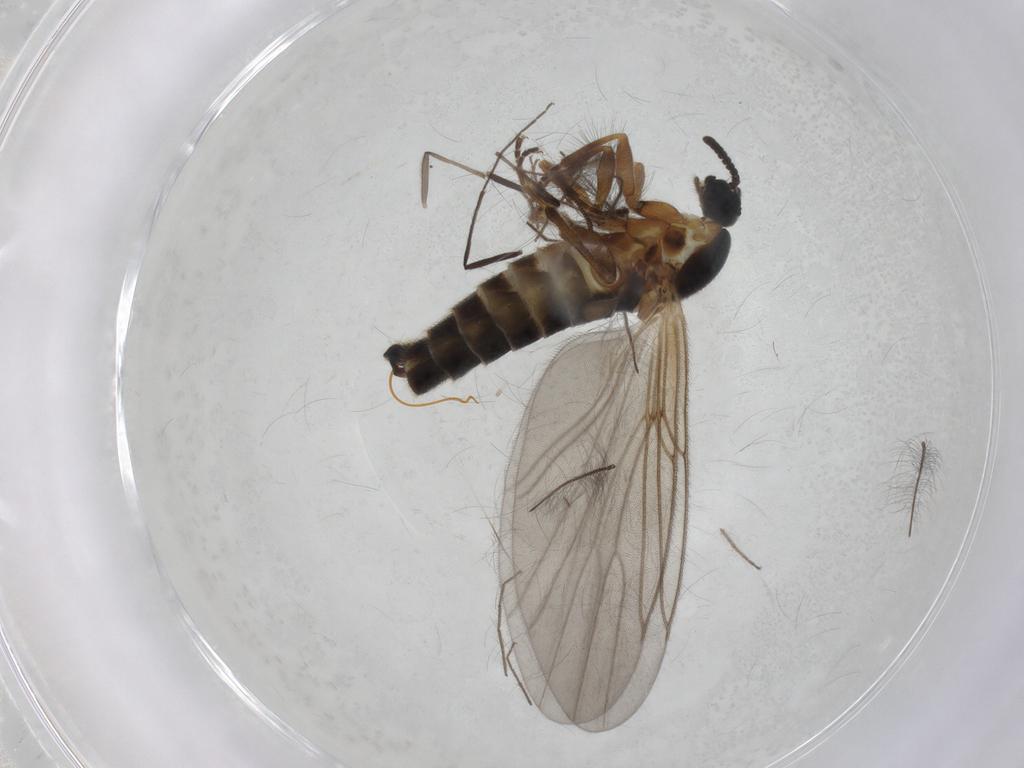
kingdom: Animalia
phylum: Arthropoda
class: Insecta
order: Diptera
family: Scatopsidae
